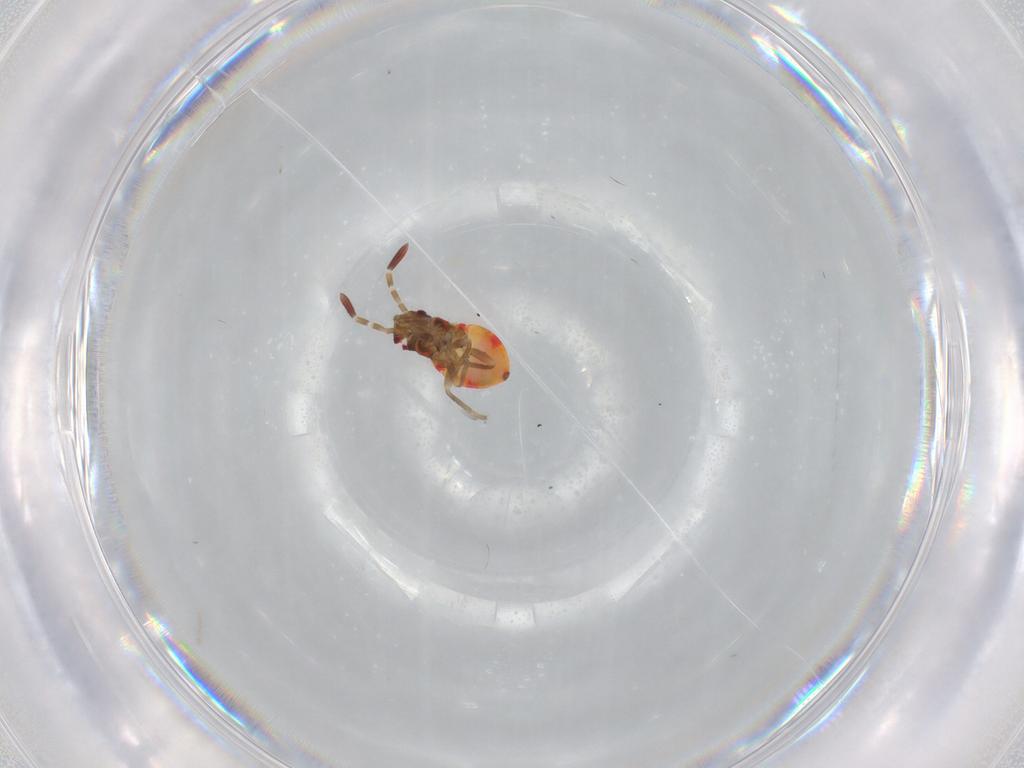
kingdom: Animalia
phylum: Arthropoda
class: Insecta
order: Hemiptera
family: Rhyparochromidae
